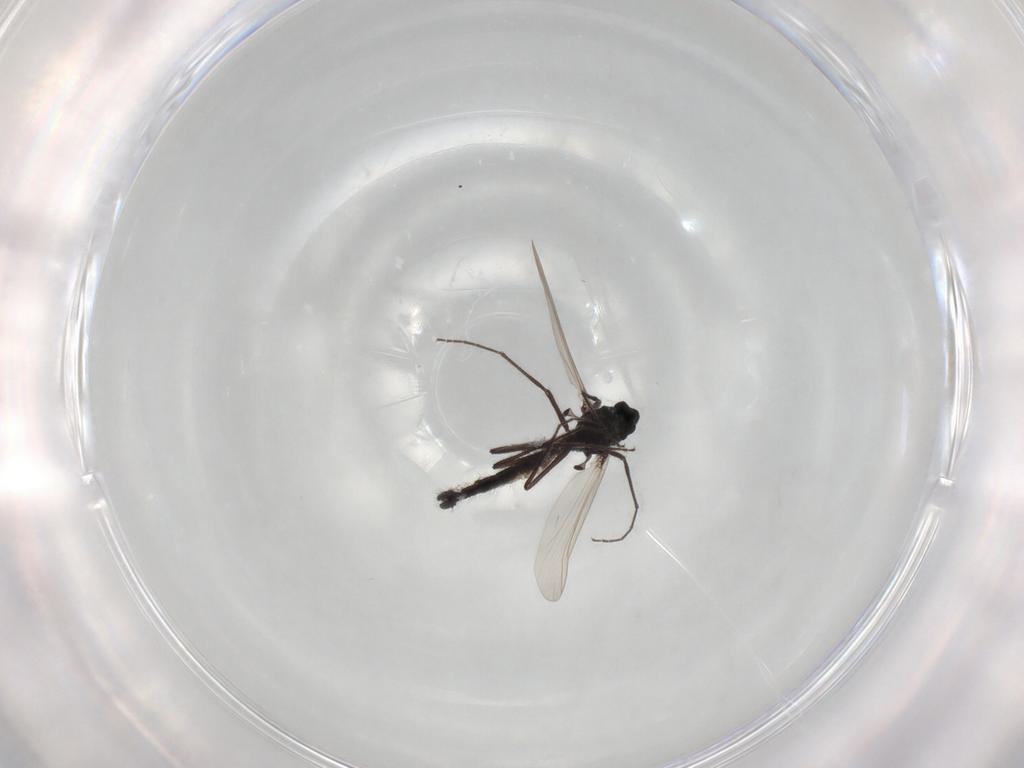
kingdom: Animalia
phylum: Arthropoda
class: Insecta
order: Diptera
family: Chironomidae
